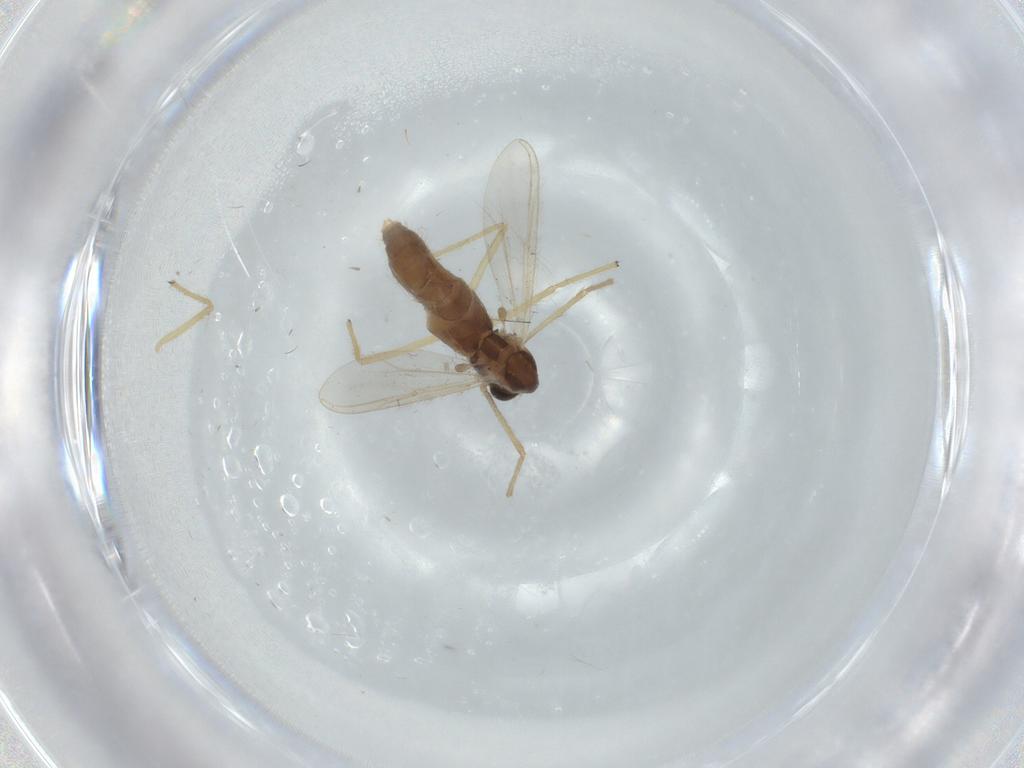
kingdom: Animalia
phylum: Arthropoda
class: Insecta
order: Diptera
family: Chironomidae
